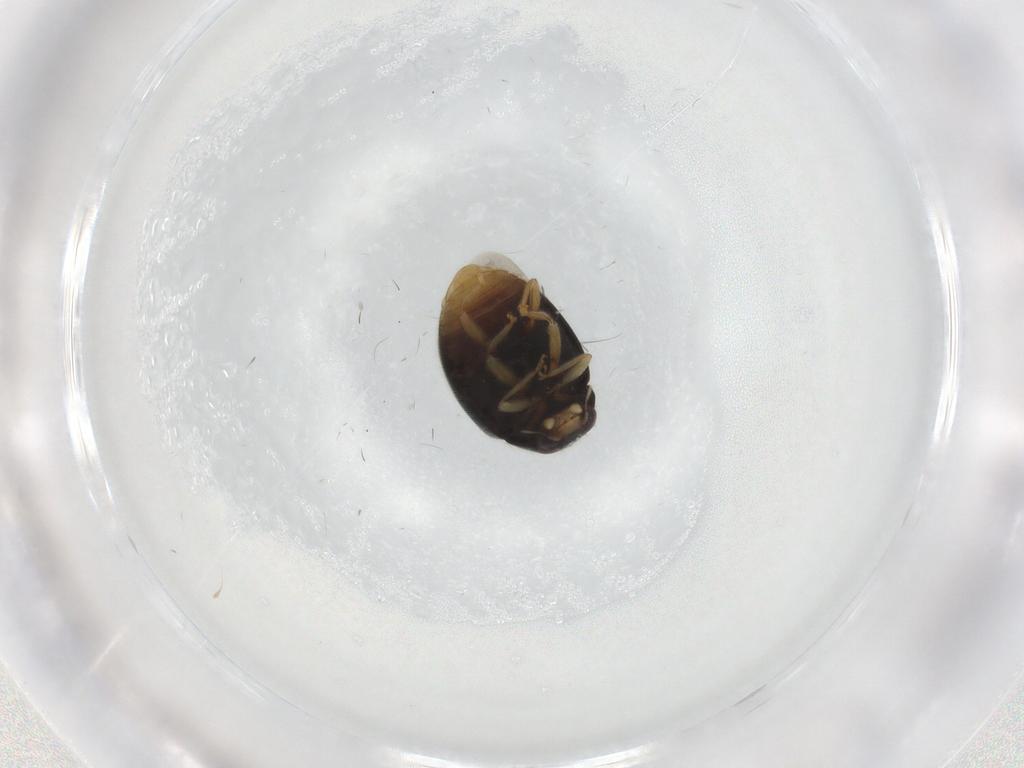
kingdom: Animalia
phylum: Arthropoda
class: Insecta
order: Coleoptera
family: Coccinellidae
